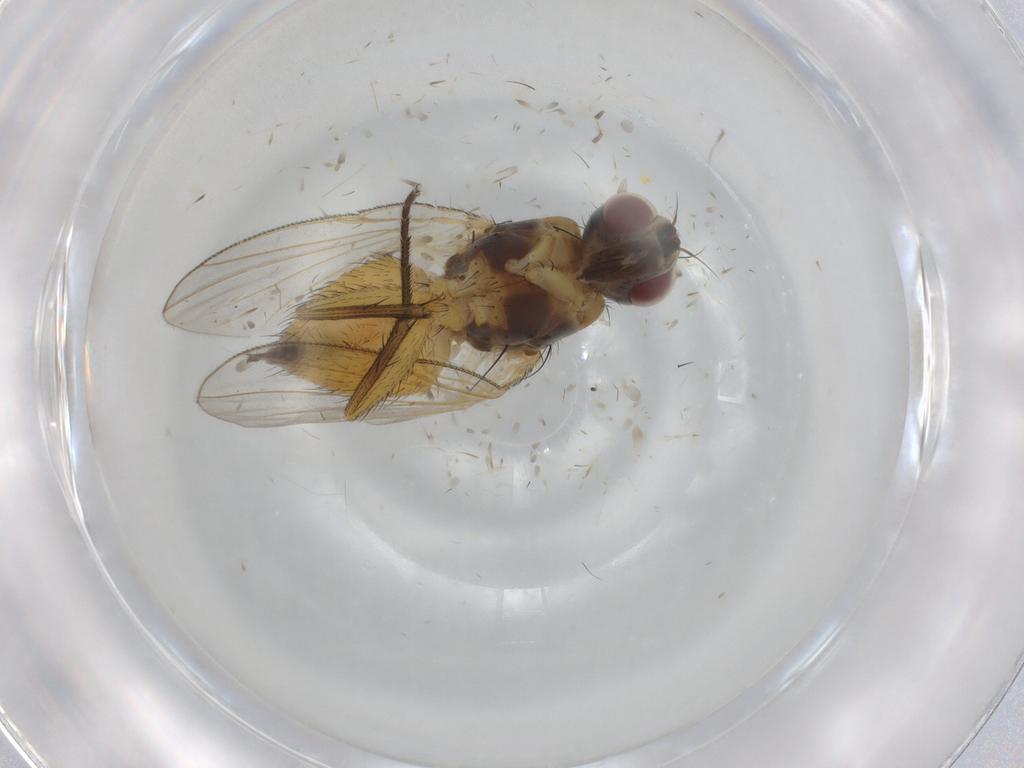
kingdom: Animalia
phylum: Arthropoda
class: Insecta
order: Diptera
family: Muscidae
